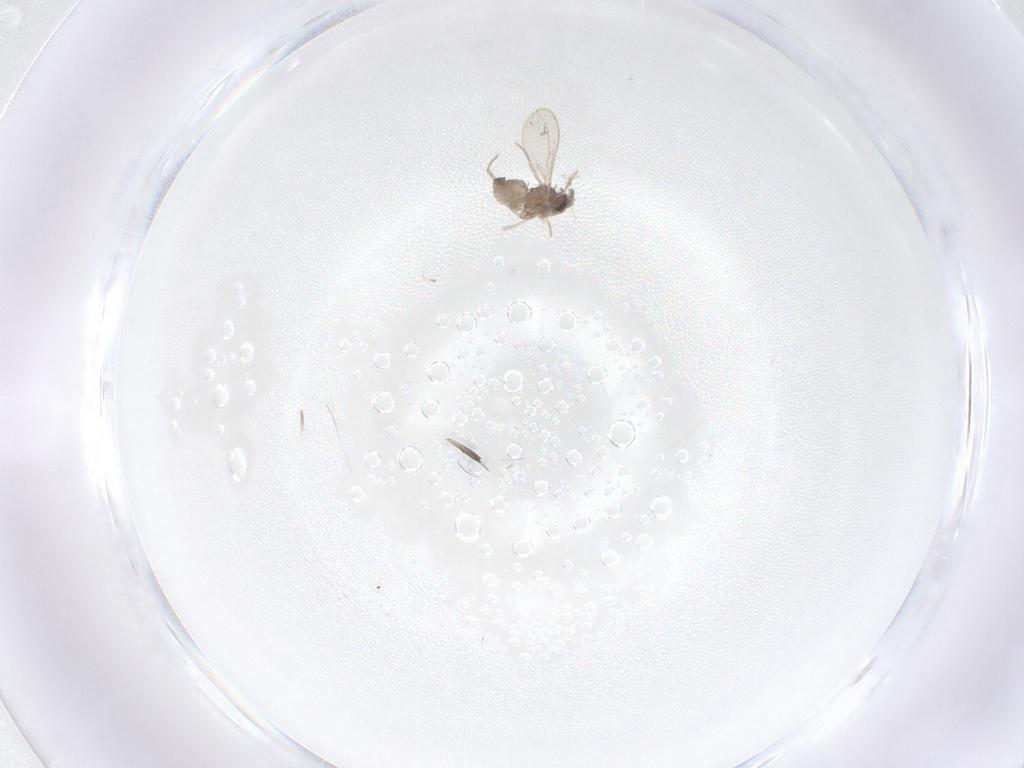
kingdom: Animalia
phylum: Arthropoda
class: Insecta
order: Diptera
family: Cecidomyiidae
